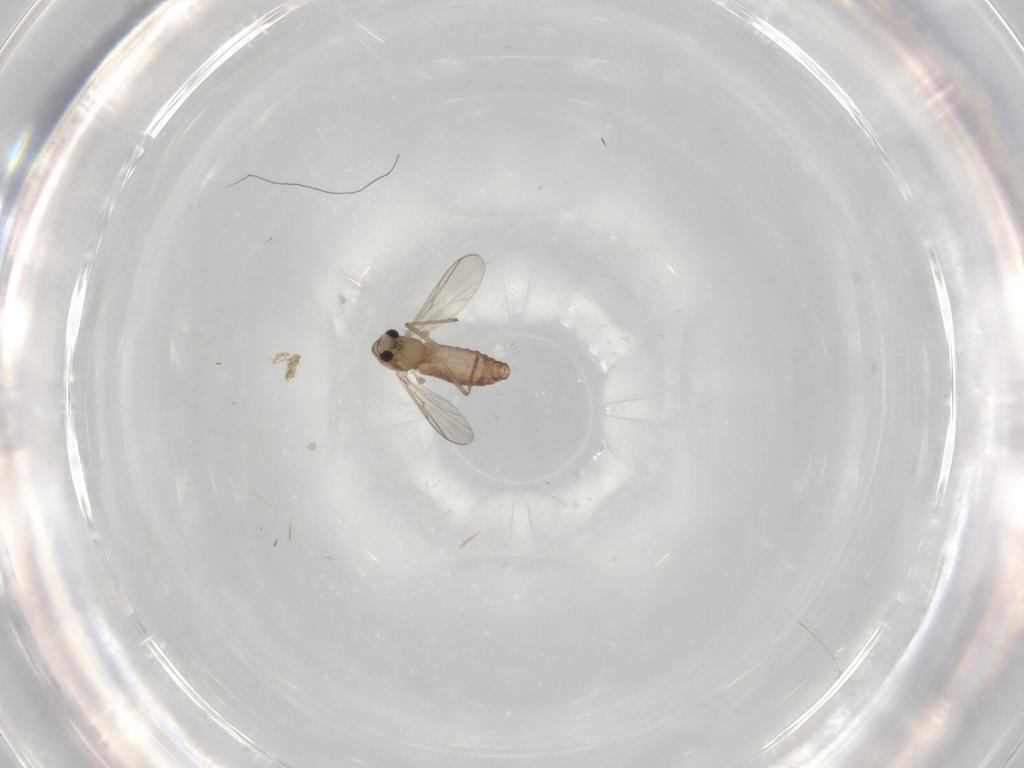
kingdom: Animalia
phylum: Arthropoda
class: Insecta
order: Diptera
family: Chironomidae
